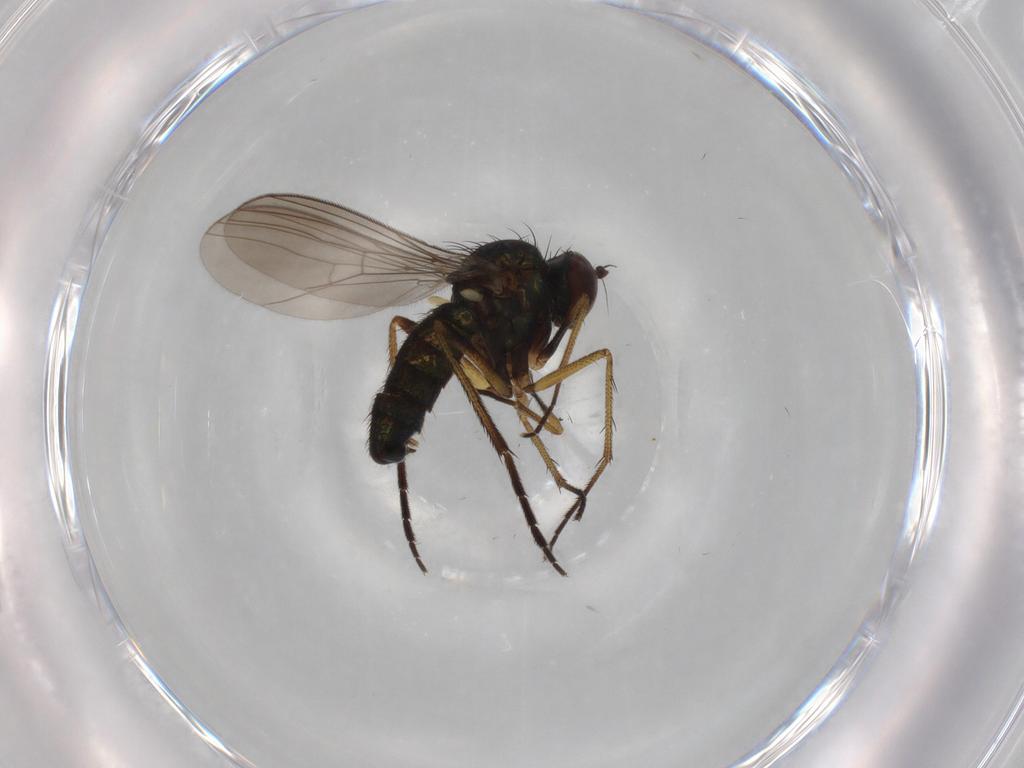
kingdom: Animalia
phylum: Arthropoda
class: Insecta
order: Diptera
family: Dolichopodidae
